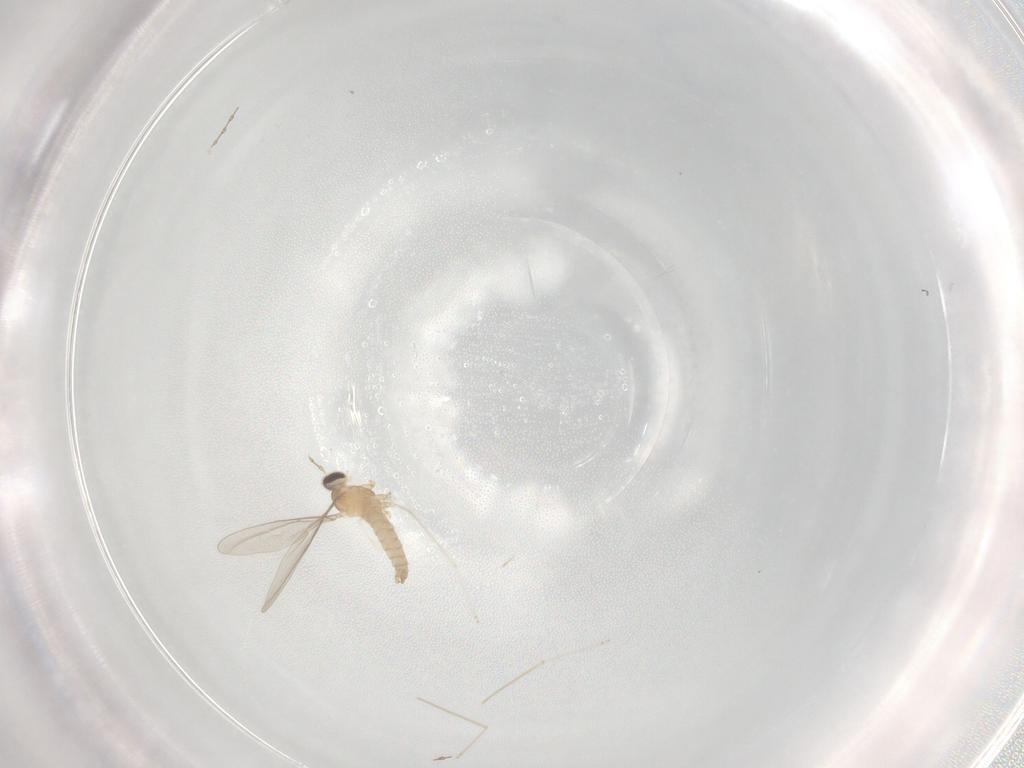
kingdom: Animalia
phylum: Arthropoda
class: Insecta
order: Diptera
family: Cecidomyiidae
